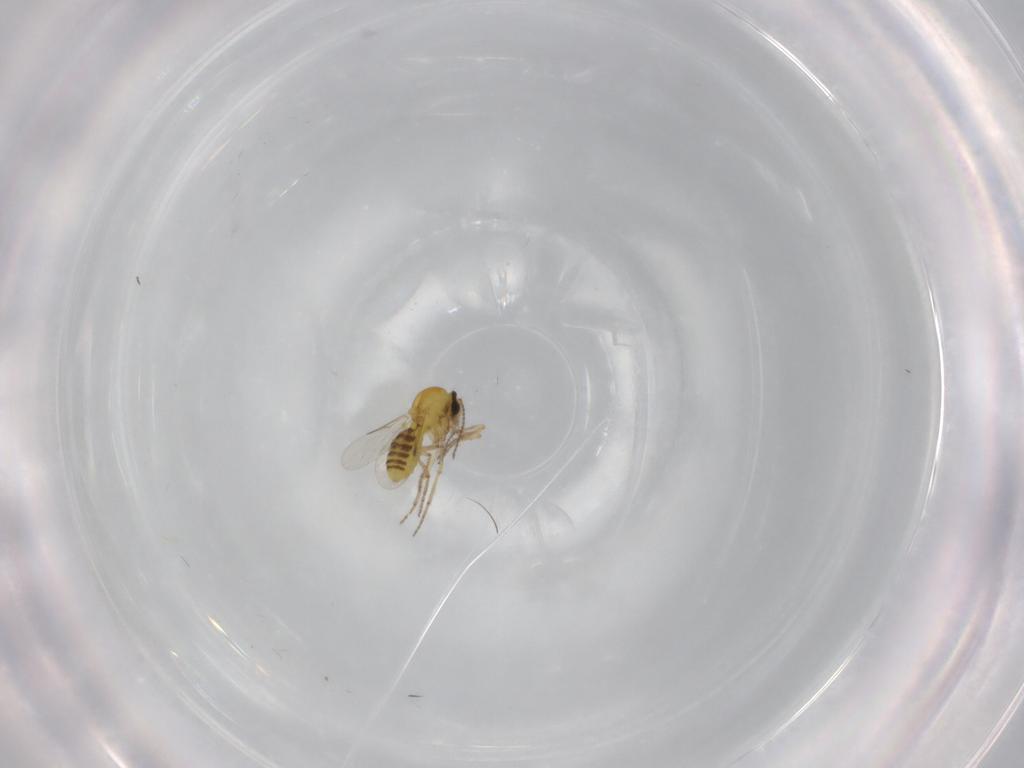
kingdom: Animalia
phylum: Arthropoda
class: Insecta
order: Diptera
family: Ceratopogonidae
